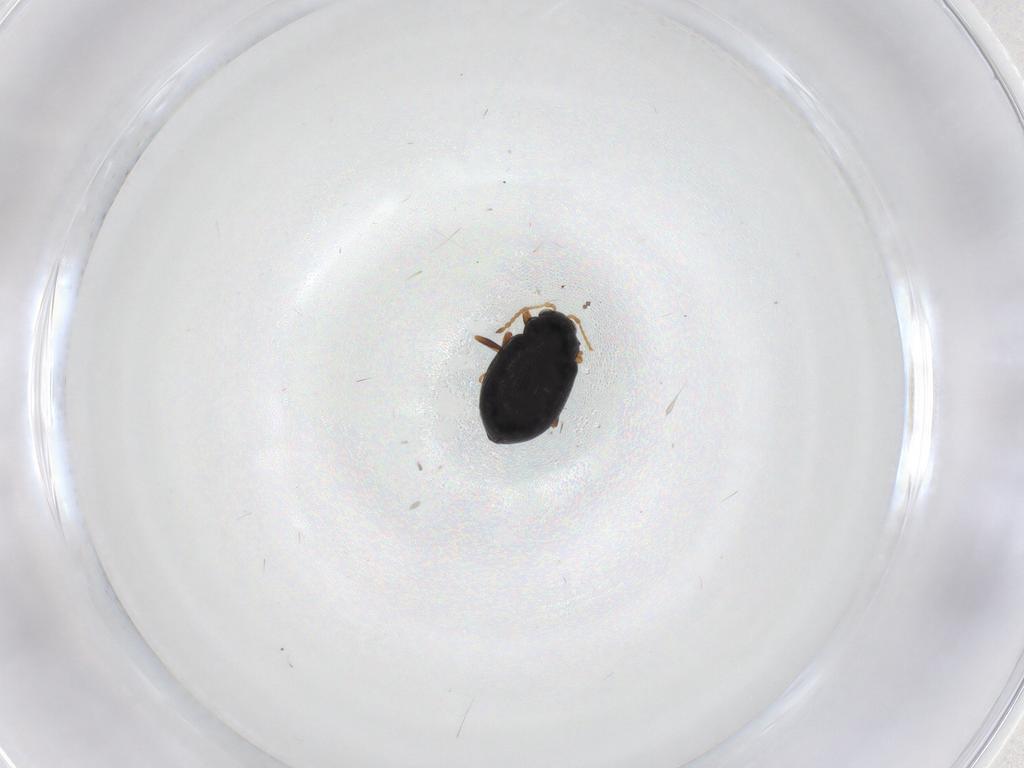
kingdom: Animalia
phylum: Arthropoda
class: Insecta
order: Coleoptera
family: Chrysomelidae
